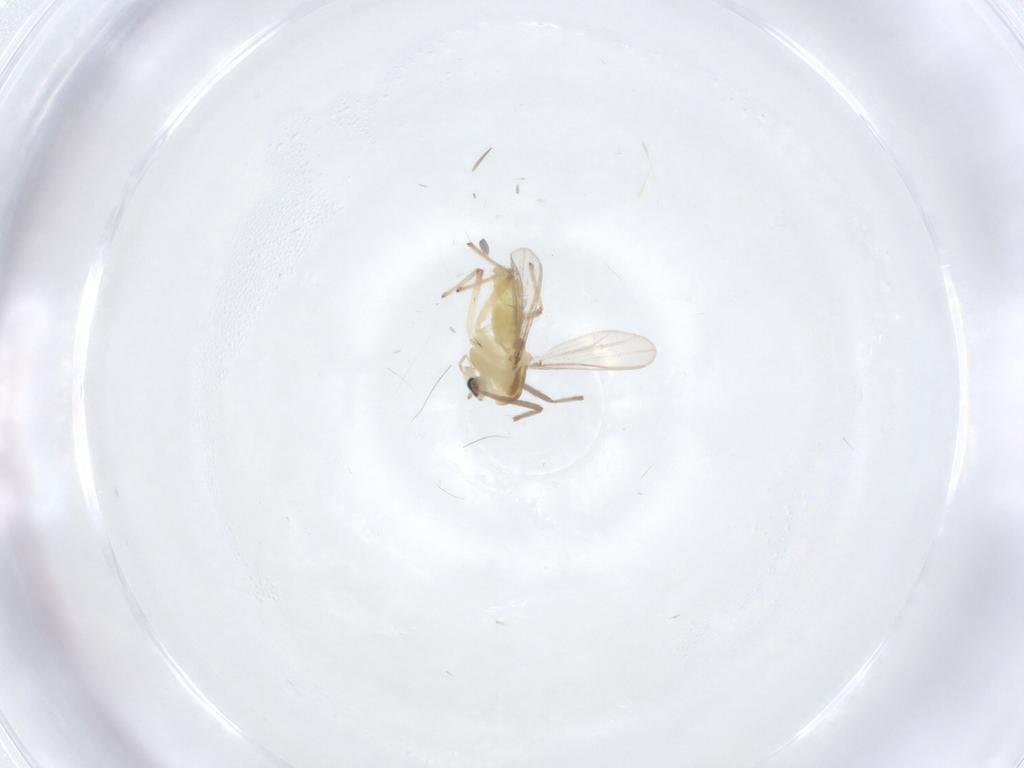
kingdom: Animalia
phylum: Arthropoda
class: Insecta
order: Diptera
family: Chironomidae
